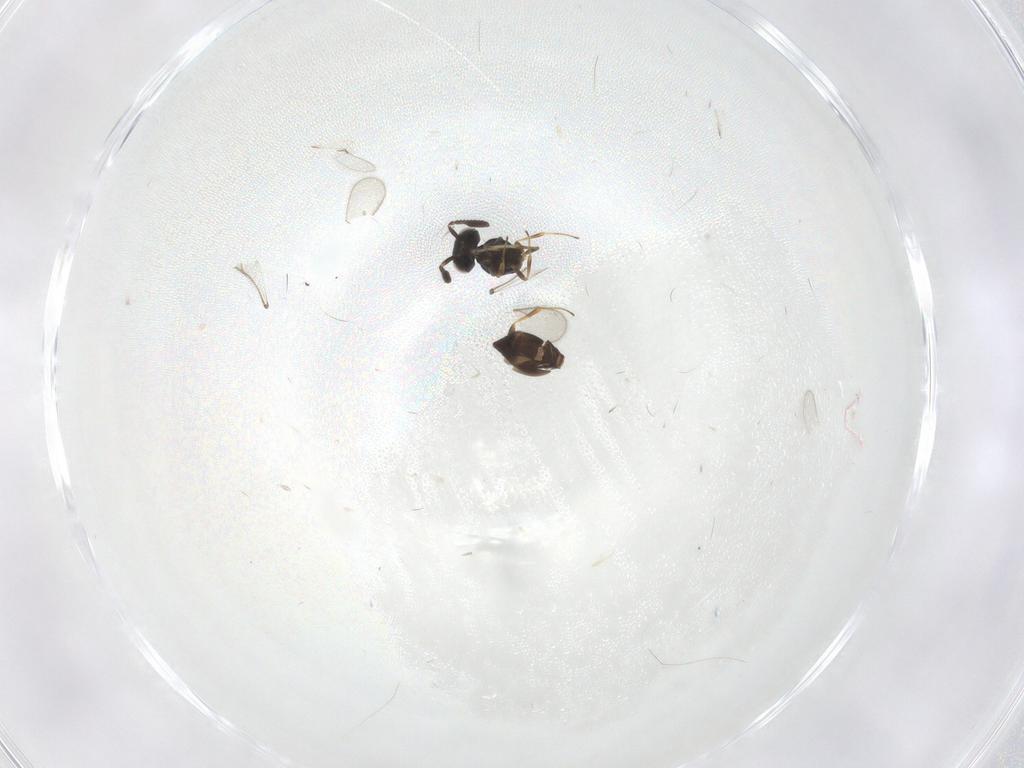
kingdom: Animalia
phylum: Arthropoda
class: Insecta
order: Hymenoptera
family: Scelionidae
